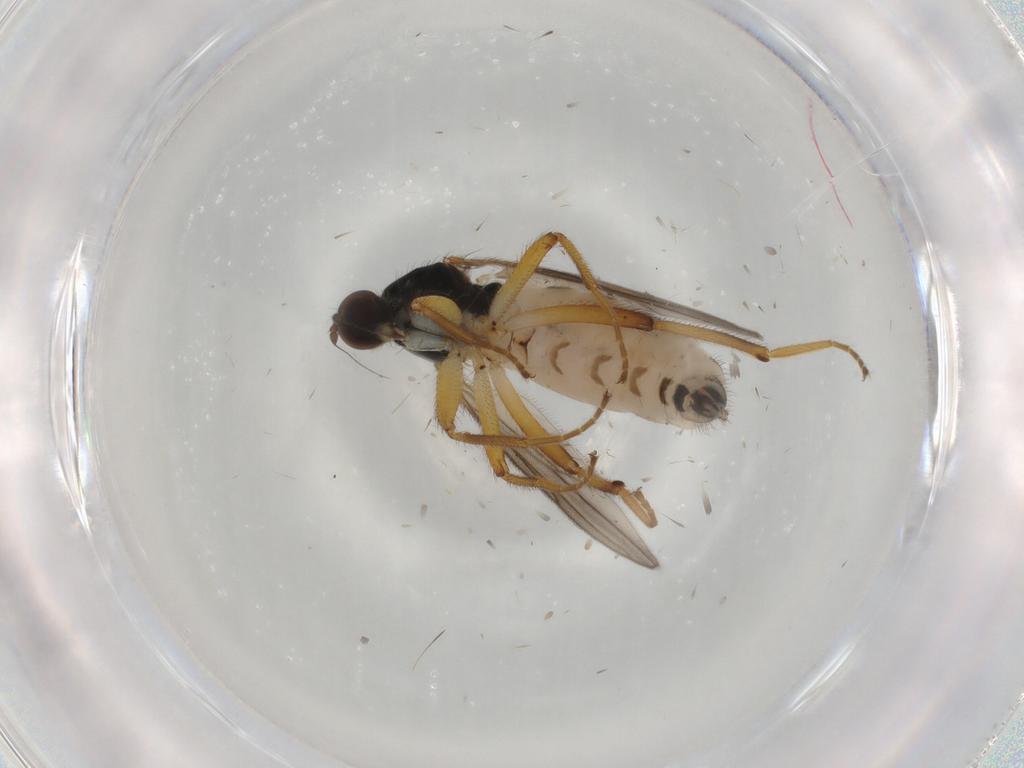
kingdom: Animalia
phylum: Arthropoda
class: Insecta
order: Diptera
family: Hybotidae
